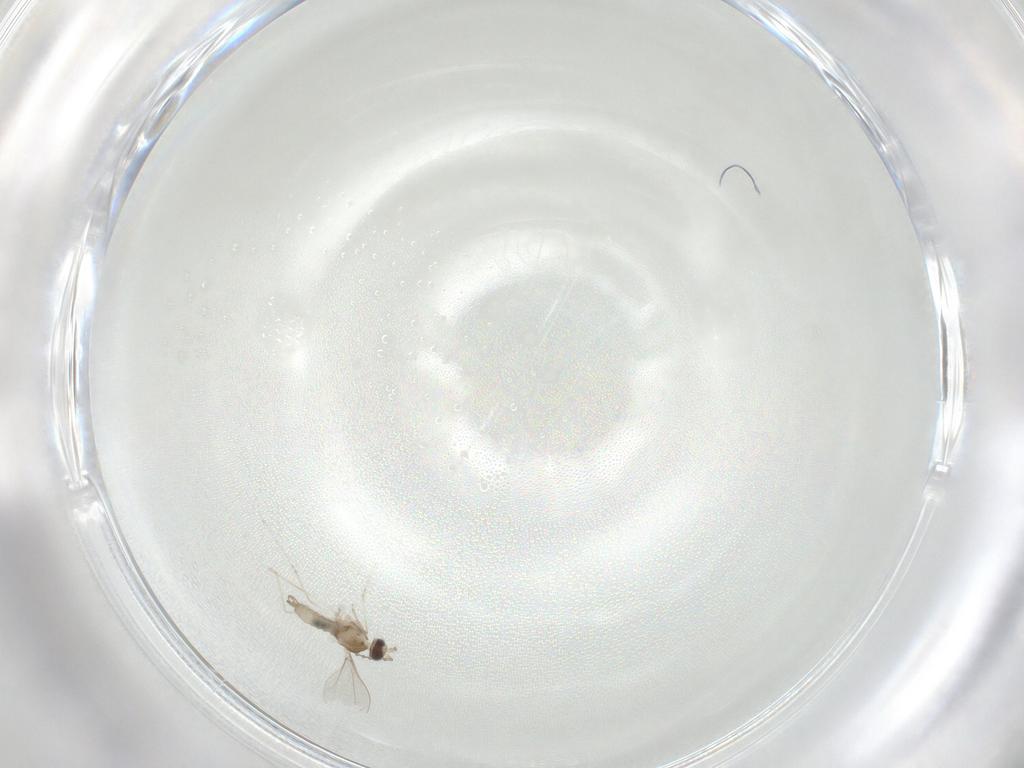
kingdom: Animalia
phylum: Arthropoda
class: Insecta
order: Diptera
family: Cecidomyiidae
